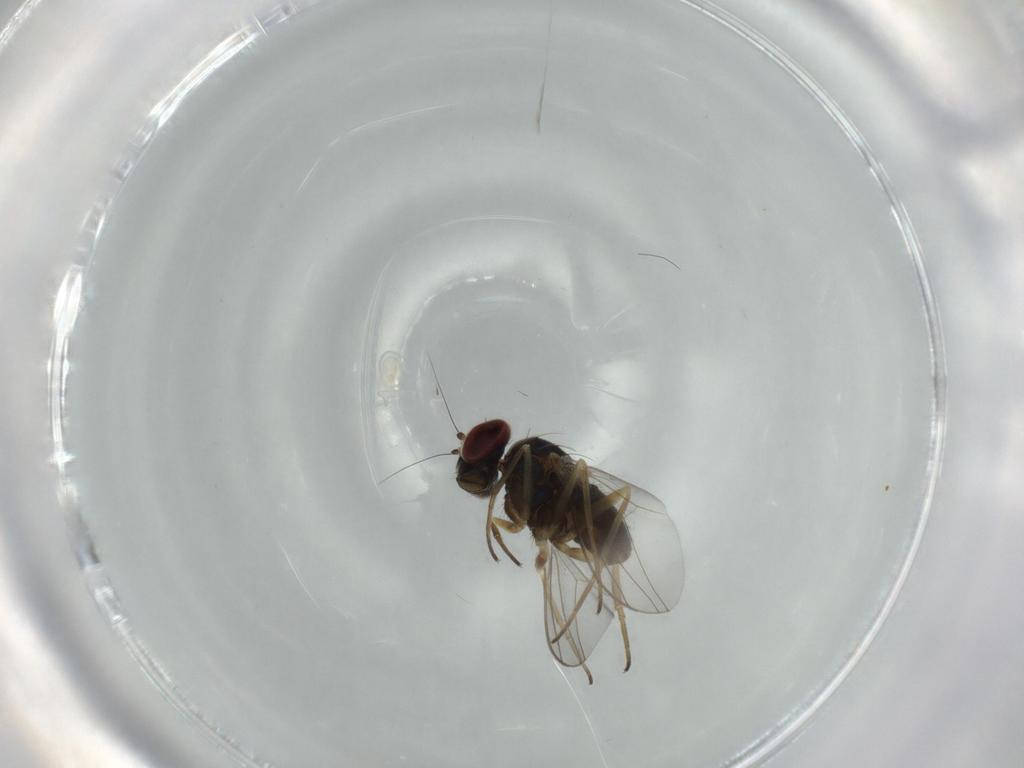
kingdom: Animalia
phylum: Arthropoda
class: Insecta
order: Diptera
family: Dolichopodidae
